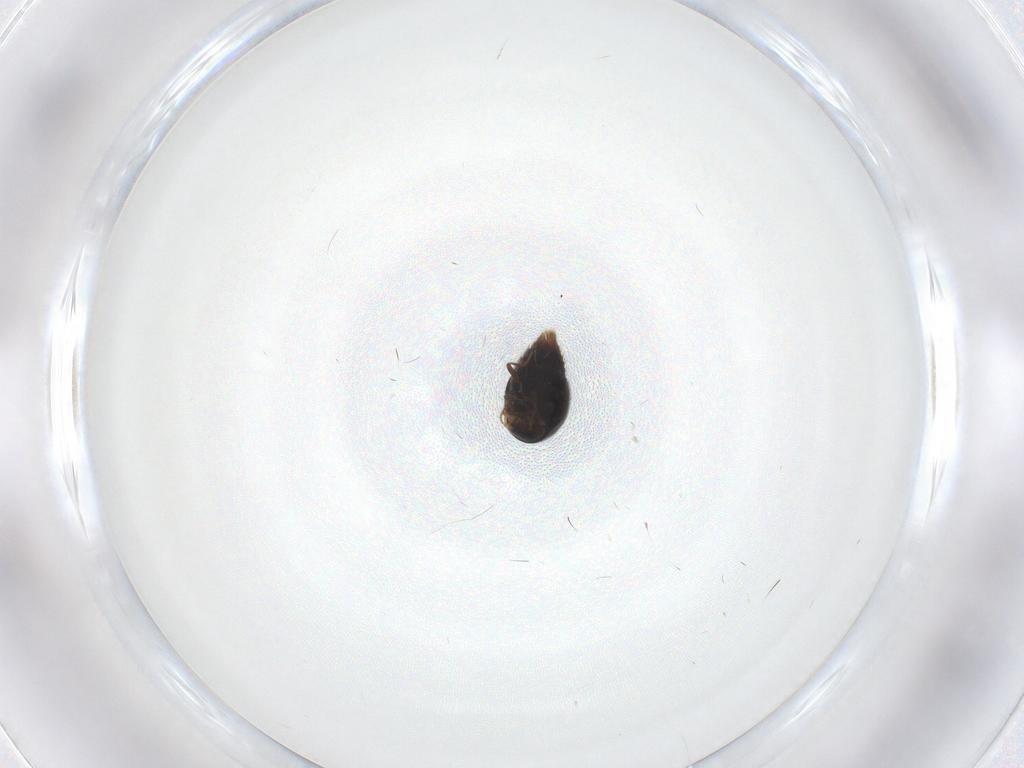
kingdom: Animalia
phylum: Arthropoda
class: Insecta
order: Coleoptera
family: Staphylinidae
